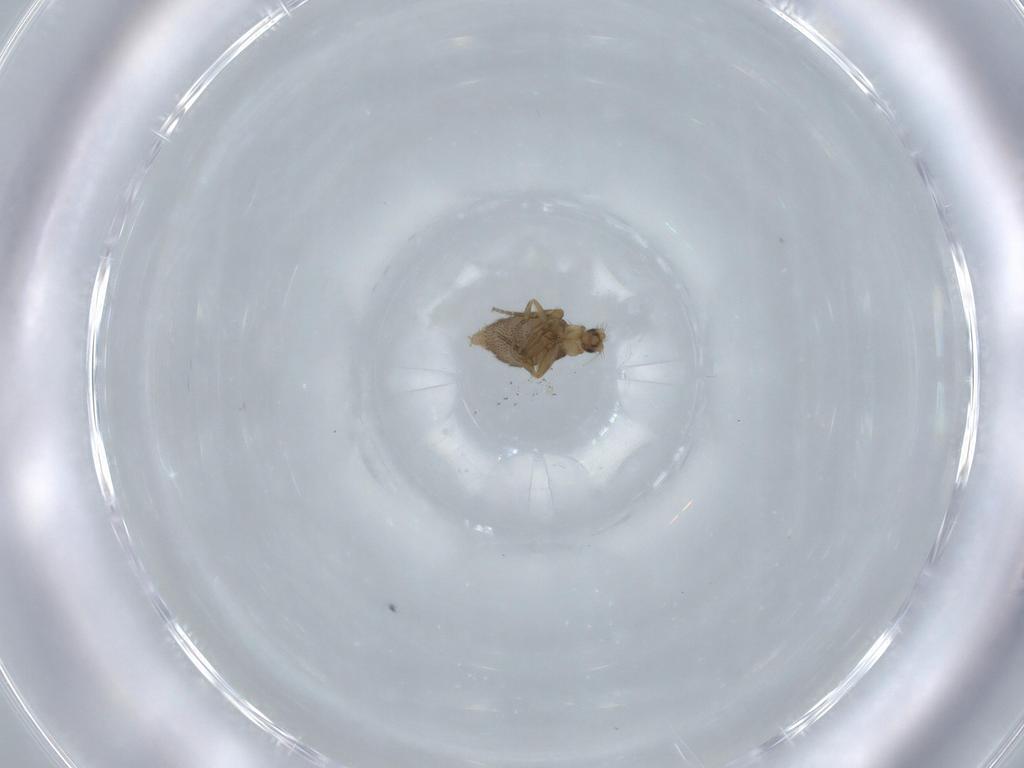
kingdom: Animalia
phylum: Arthropoda
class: Insecta
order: Diptera
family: Phoridae
